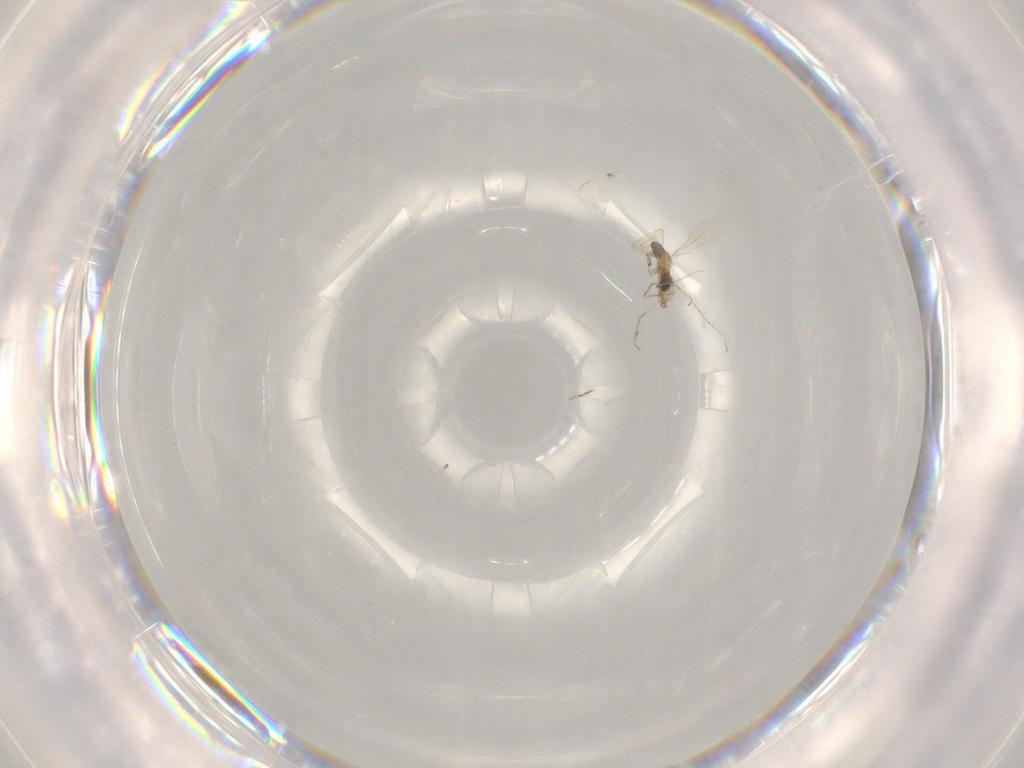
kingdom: Animalia
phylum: Arthropoda
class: Insecta
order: Diptera
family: Cecidomyiidae
